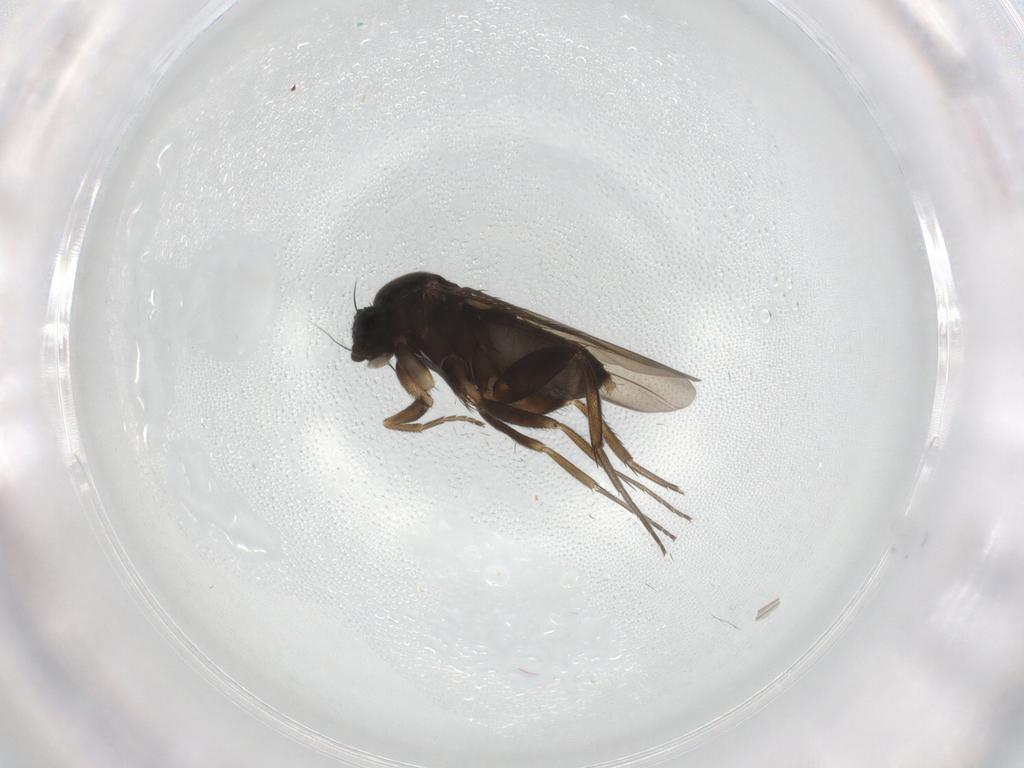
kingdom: Animalia
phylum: Arthropoda
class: Insecta
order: Diptera
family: Phoridae
